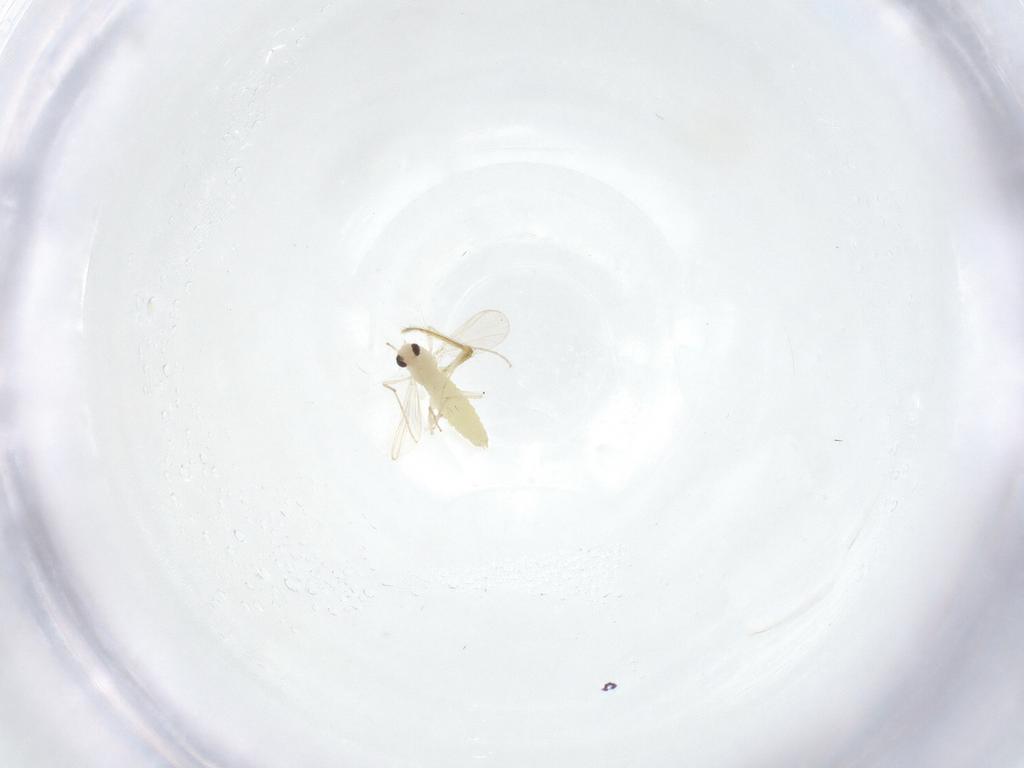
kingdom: Animalia
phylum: Arthropoda
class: Insecta
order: Diptera
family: Chironomidae
